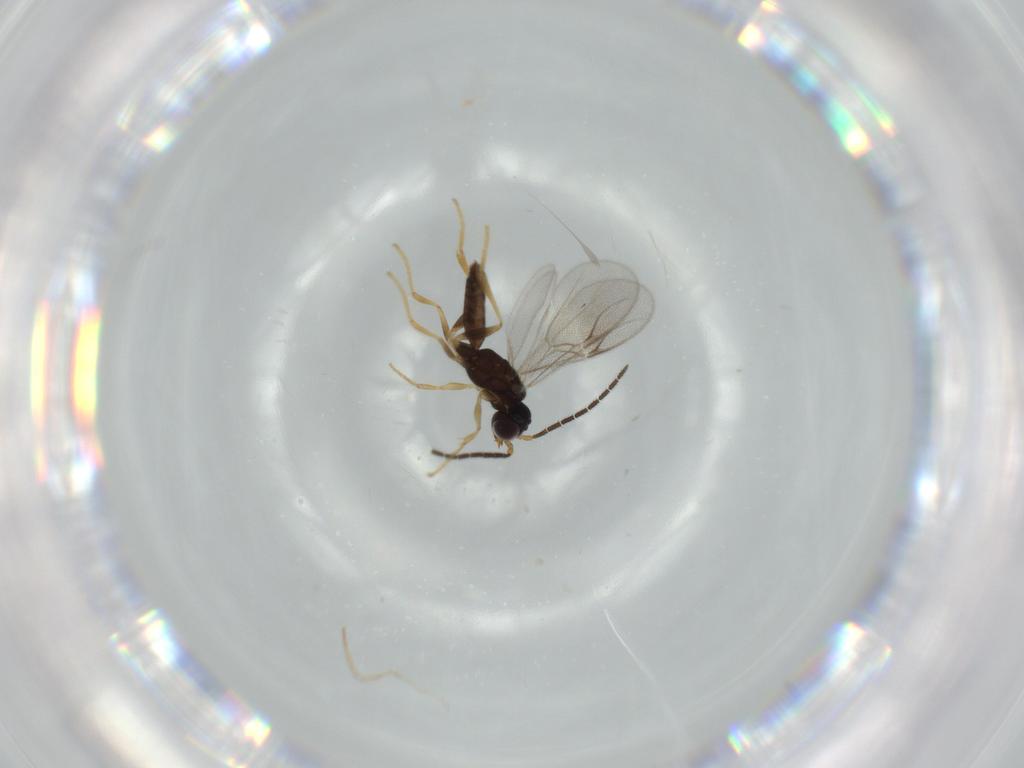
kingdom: Animalia
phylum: Arthropoda
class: Insecta
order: Hymenoptera
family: Dryinidae
